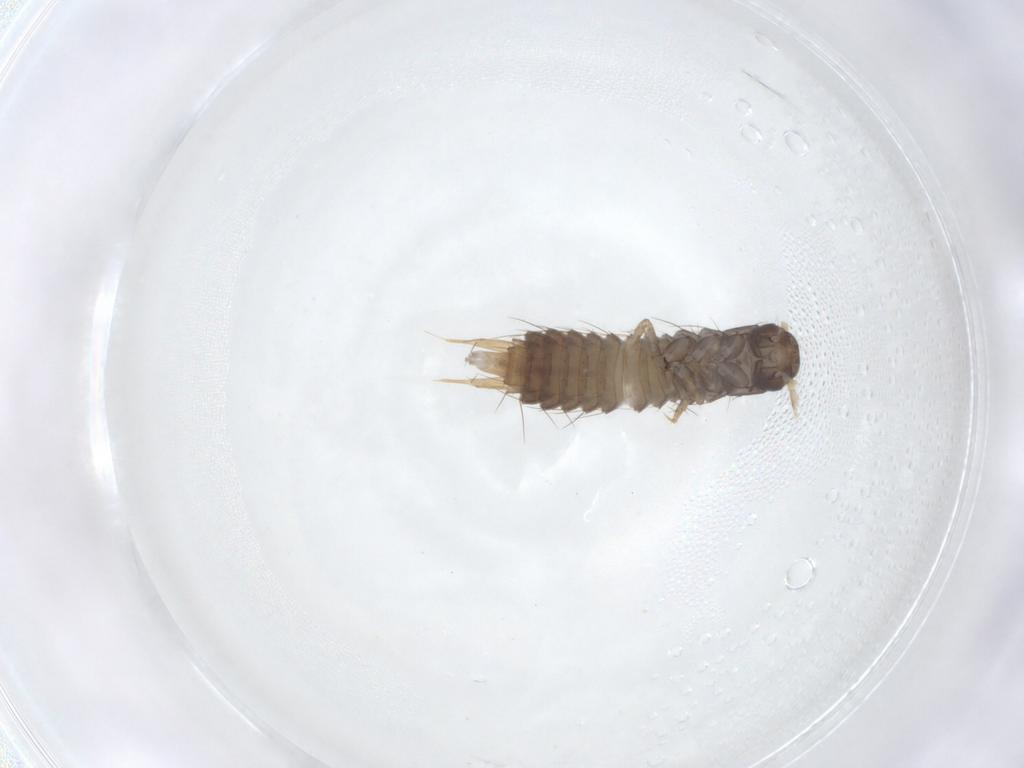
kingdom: Animalia
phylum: Arthropoda
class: Insecta
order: Coleoptera
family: Staphylinidae
